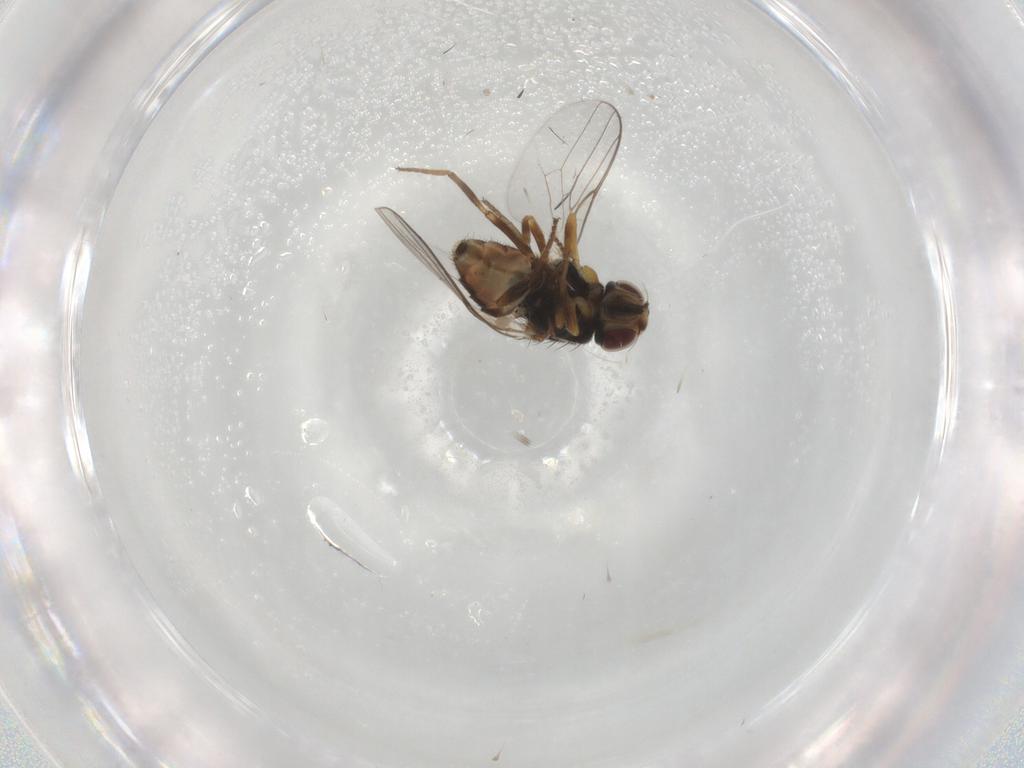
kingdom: Animalia
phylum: Arthropoda
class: Insecta
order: Diptera
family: Chloropidae
